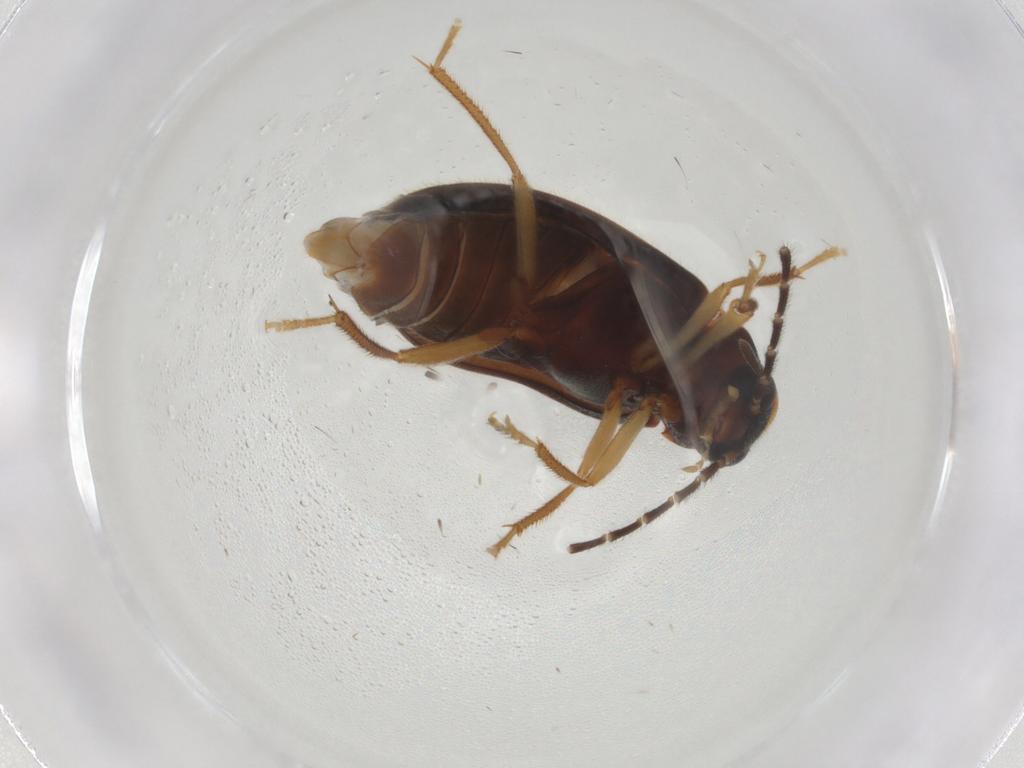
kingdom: Animalia
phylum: Arthropoda
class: Insecta
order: Coleoptera
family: Ptilodactylidae
